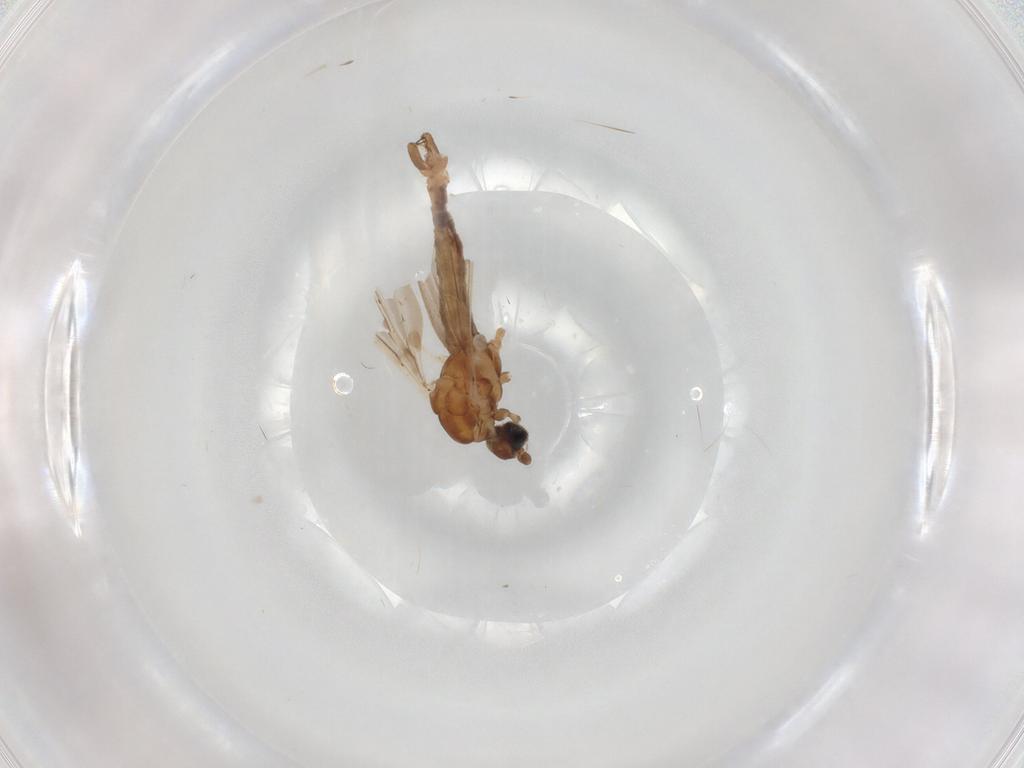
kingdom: Animalia
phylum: Arthropoda
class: Insecta
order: Diptera
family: Limoniidae
